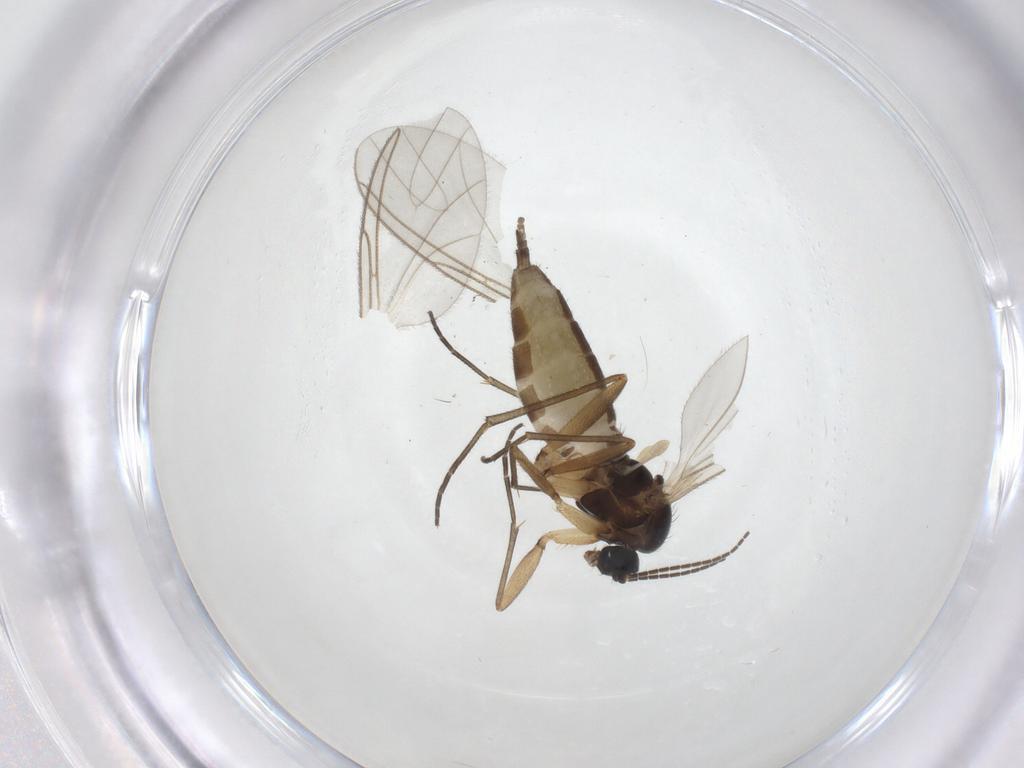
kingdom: Animalia
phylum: Arthropoda
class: Insecta
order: Diptera
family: Sciaridae
